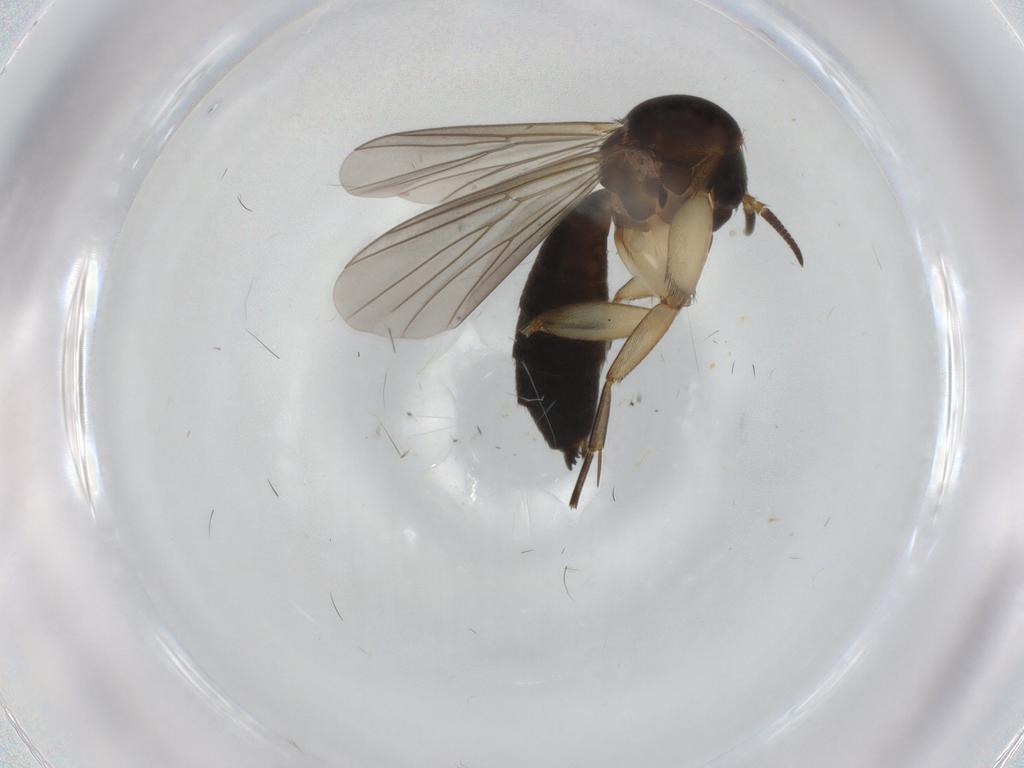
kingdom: Animalia
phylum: Arthropoda
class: Insecta
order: Diptera
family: Mycetophilidae
